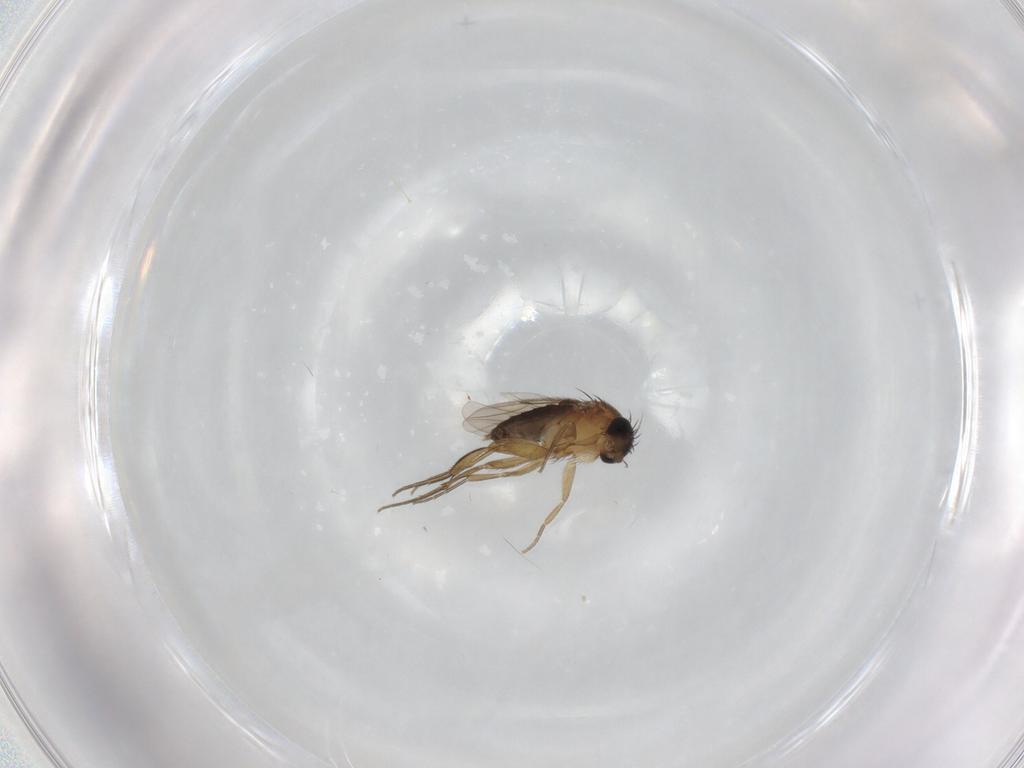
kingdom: Animalia
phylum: Arthropoda
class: Insecta
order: Diptera
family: Phoridae
